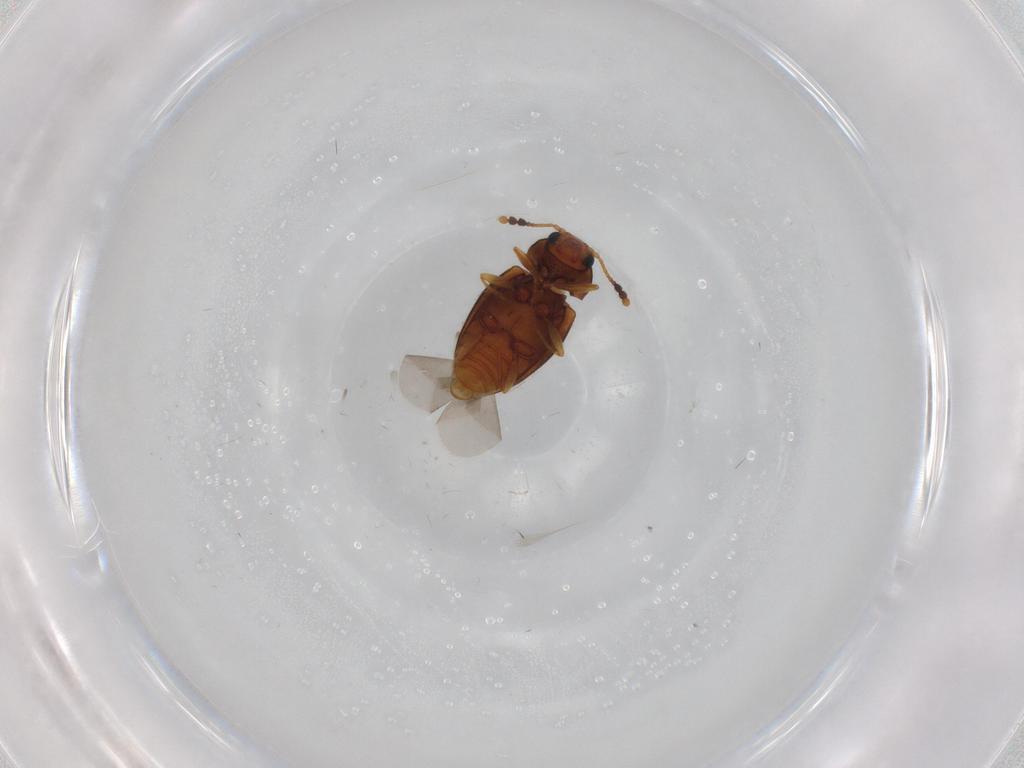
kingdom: Animalia
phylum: Arthropoda
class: Insecta
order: Coleoptera
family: Erotylidae
